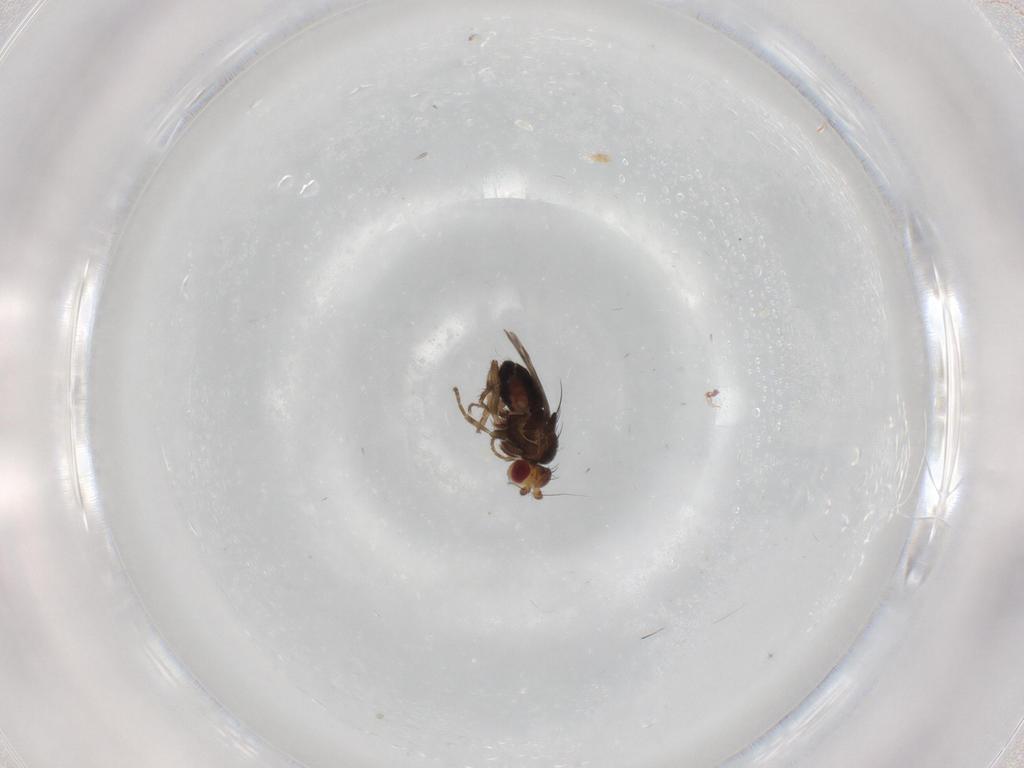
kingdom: Animalia
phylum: Arthropoda
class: Insecta
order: Diptera
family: Sphaeroceridae
